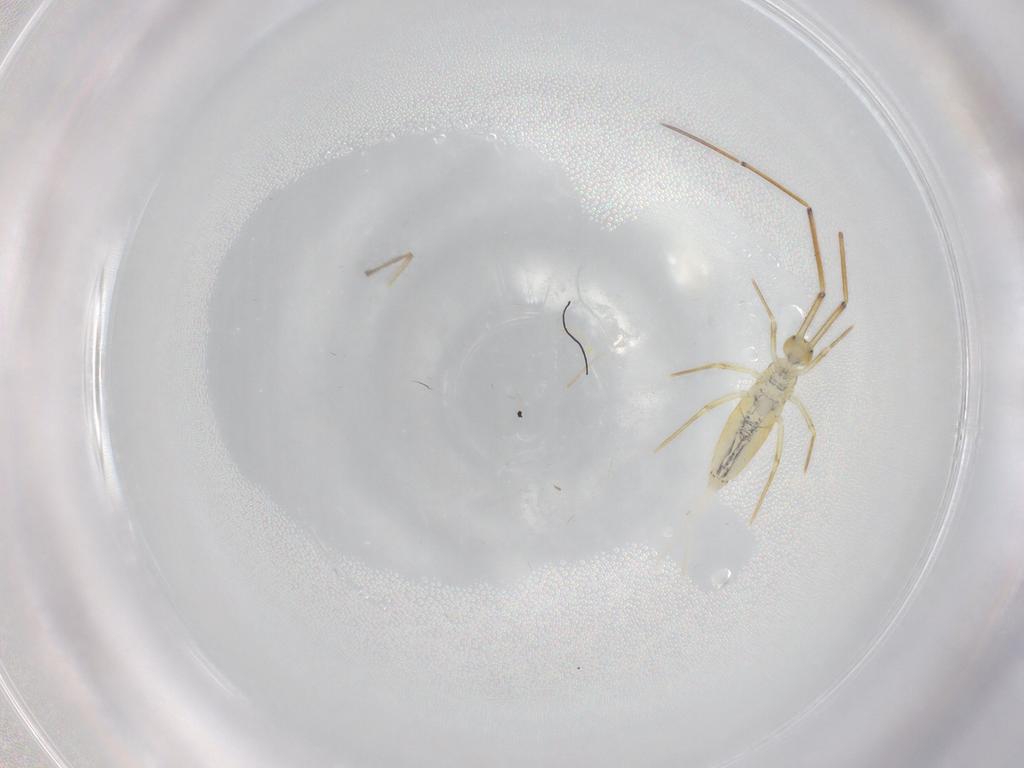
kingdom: Animalia
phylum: Arthropoda
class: Insecta
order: Diptera
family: Chironomidae
